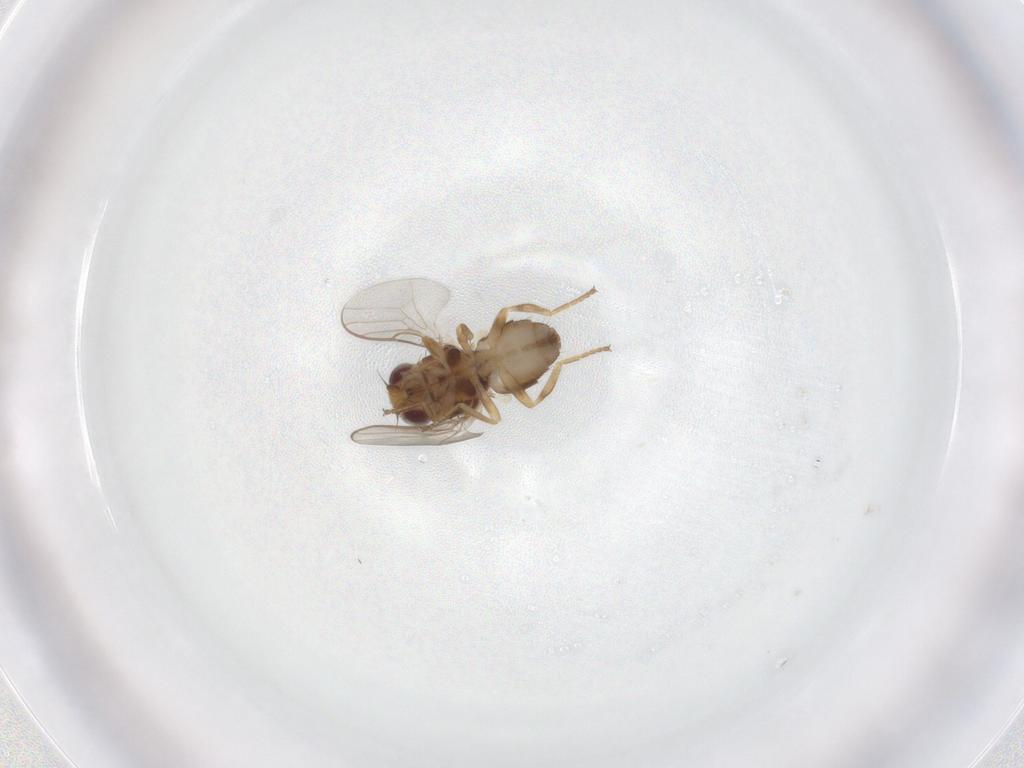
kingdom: Animalia
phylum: Arthropoda
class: Insecta
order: Diptera
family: Chloropidae
